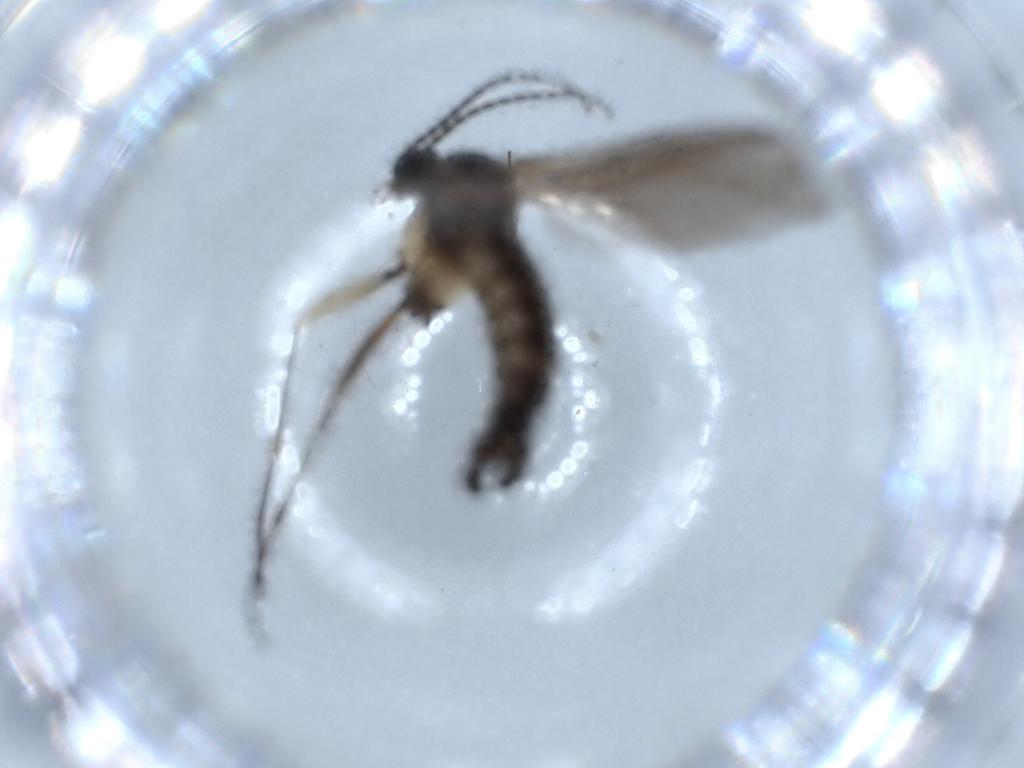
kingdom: Animalia
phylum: Arthropoda
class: Insecta
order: Diptera
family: Sciaridae
